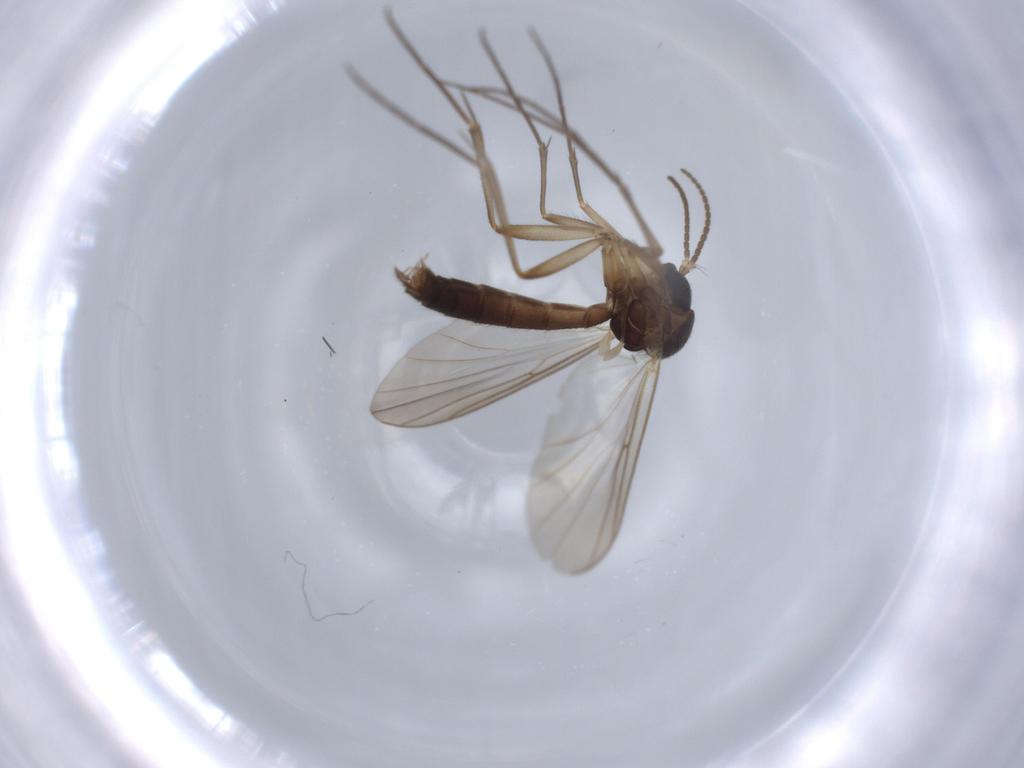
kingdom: Animalia
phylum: Arthropoda
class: Insecta
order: Diptera
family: Mycetophilidae
